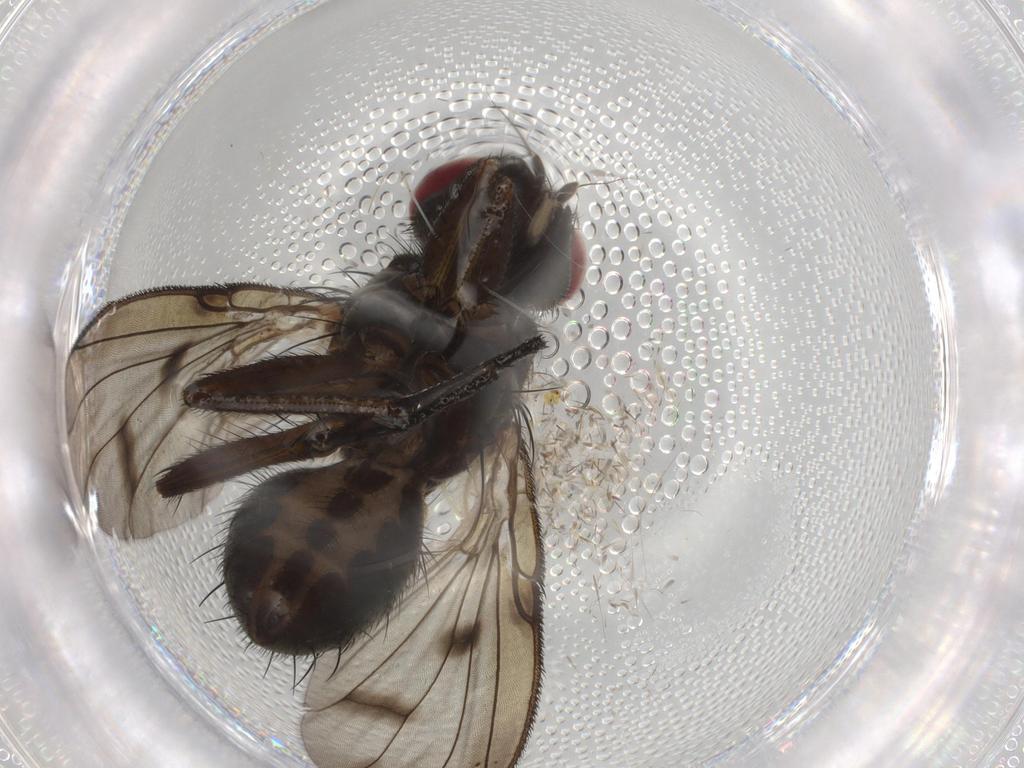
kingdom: Animalia
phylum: Arthropoda
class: Insecta
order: Diptera
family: Muscidae
